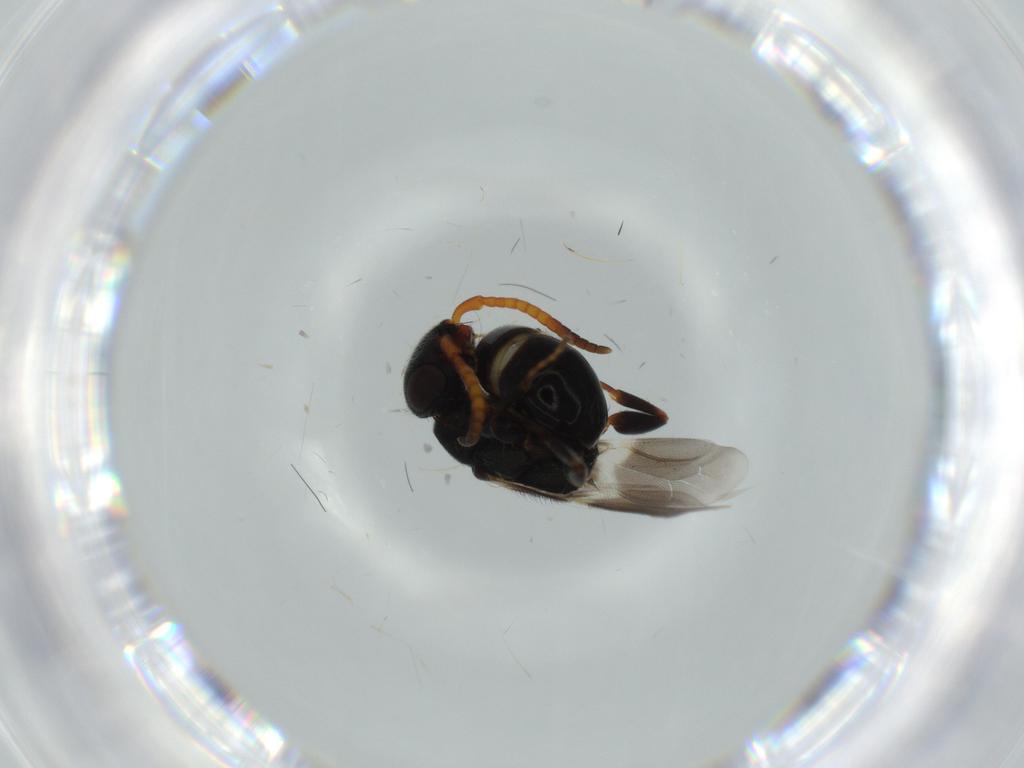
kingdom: Animalia
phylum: Arthropoda
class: Insecta
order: Hymenoptera
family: Bethylidae
